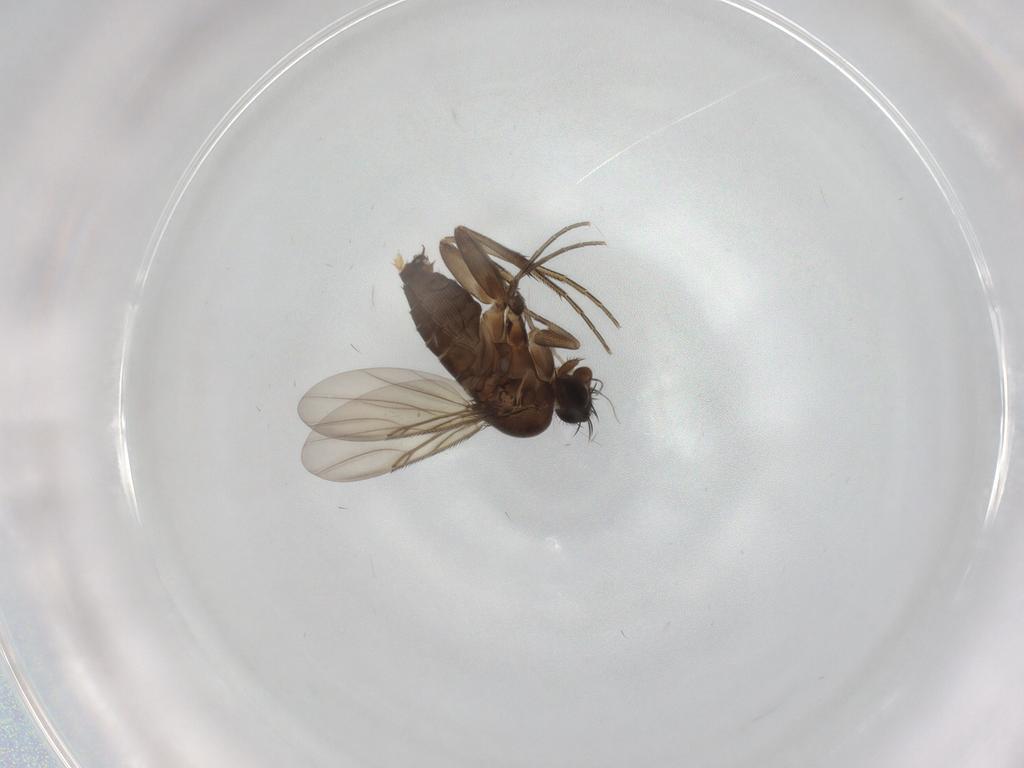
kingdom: Animalia
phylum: Arthropoda
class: Insecta
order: Diptera
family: Phoridae
